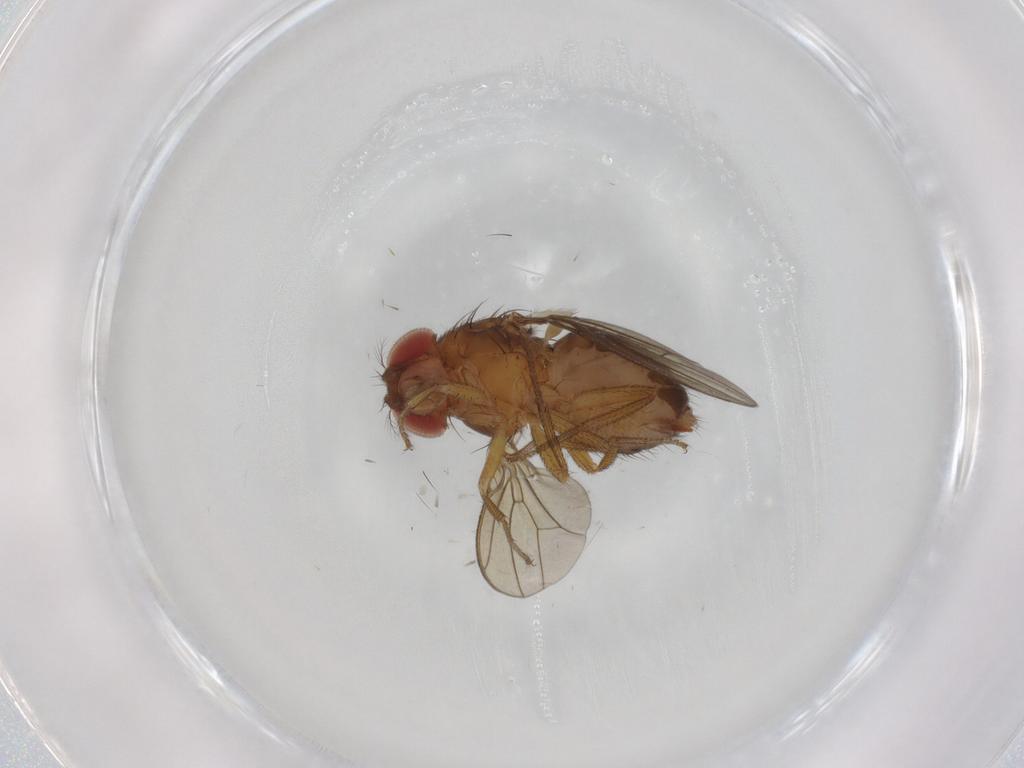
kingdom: Animalia
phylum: Arthropoda
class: Insecta
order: Diptera
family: Drosophilidae
